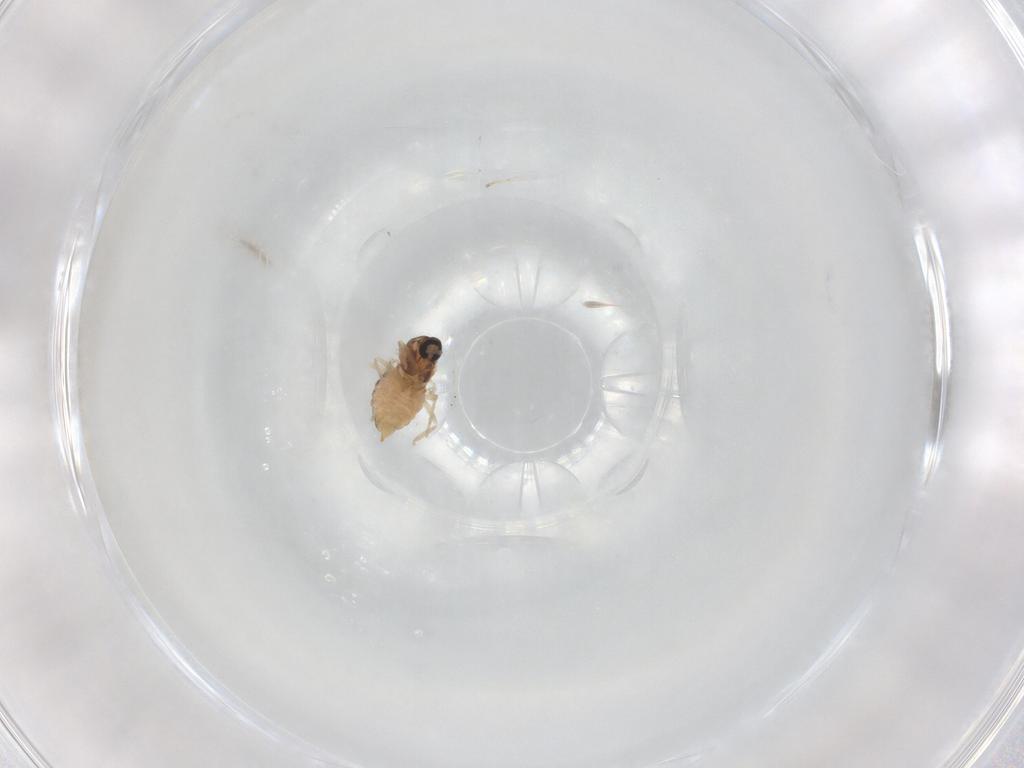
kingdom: Animalia
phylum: Arthropoda
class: Insecta
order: Diptera
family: Cecidomyiidae
